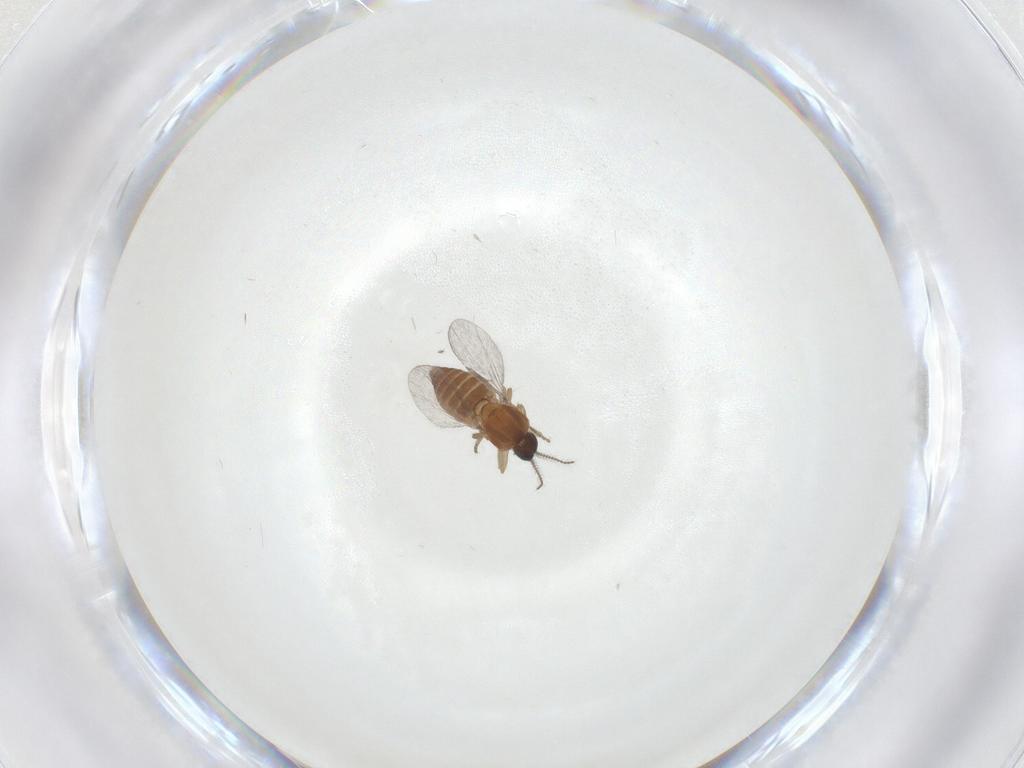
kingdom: Animalia
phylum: Arthropoda
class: Insecta
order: Diptera
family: Ceratopogonidae
